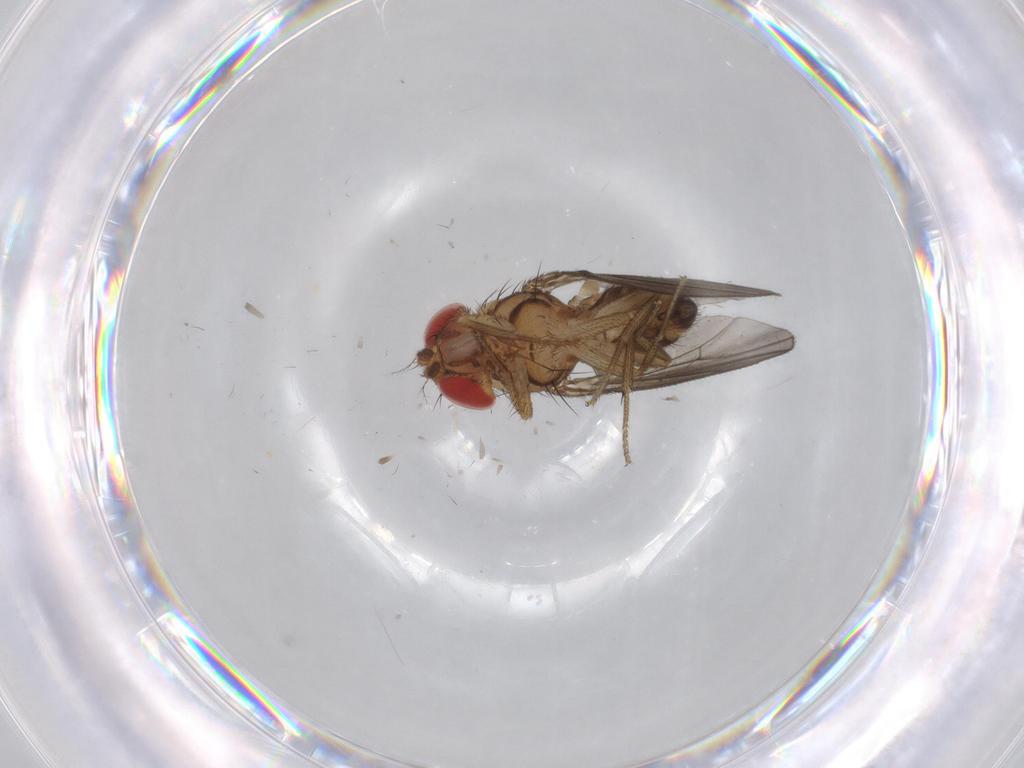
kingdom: Animalia
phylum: Arthropoda
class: Insecta
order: Diptera
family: Drosophilidae
